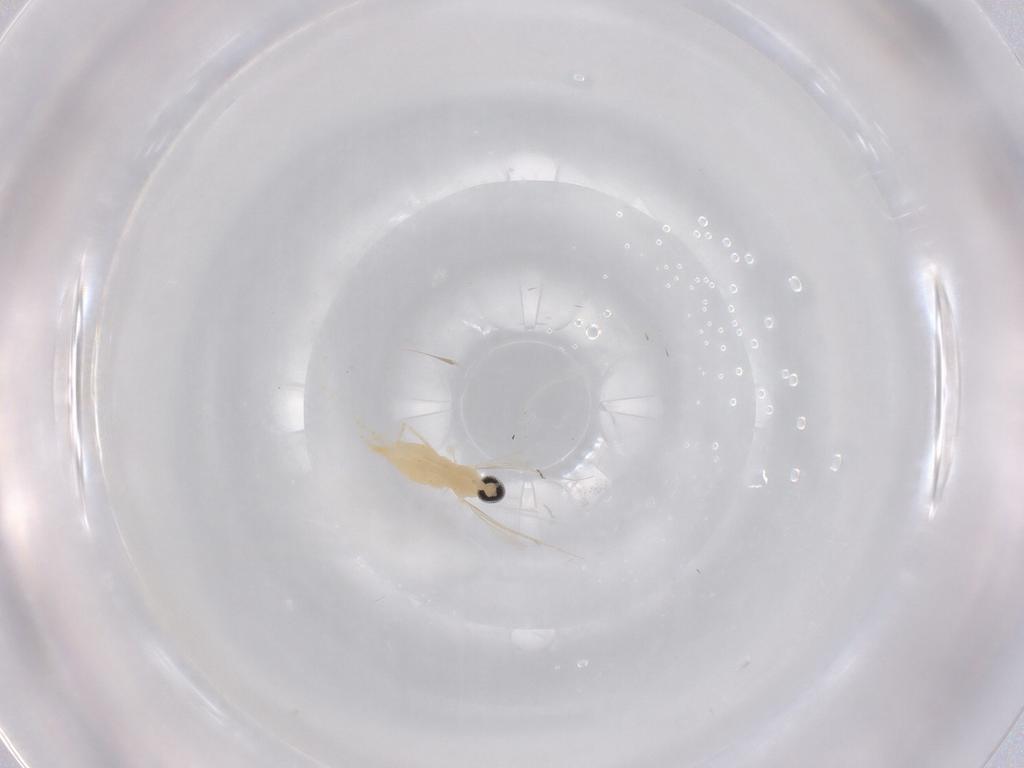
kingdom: Animalia
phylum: Arthropoda
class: Insecta
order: Diptera
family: Cecidomyiidae
